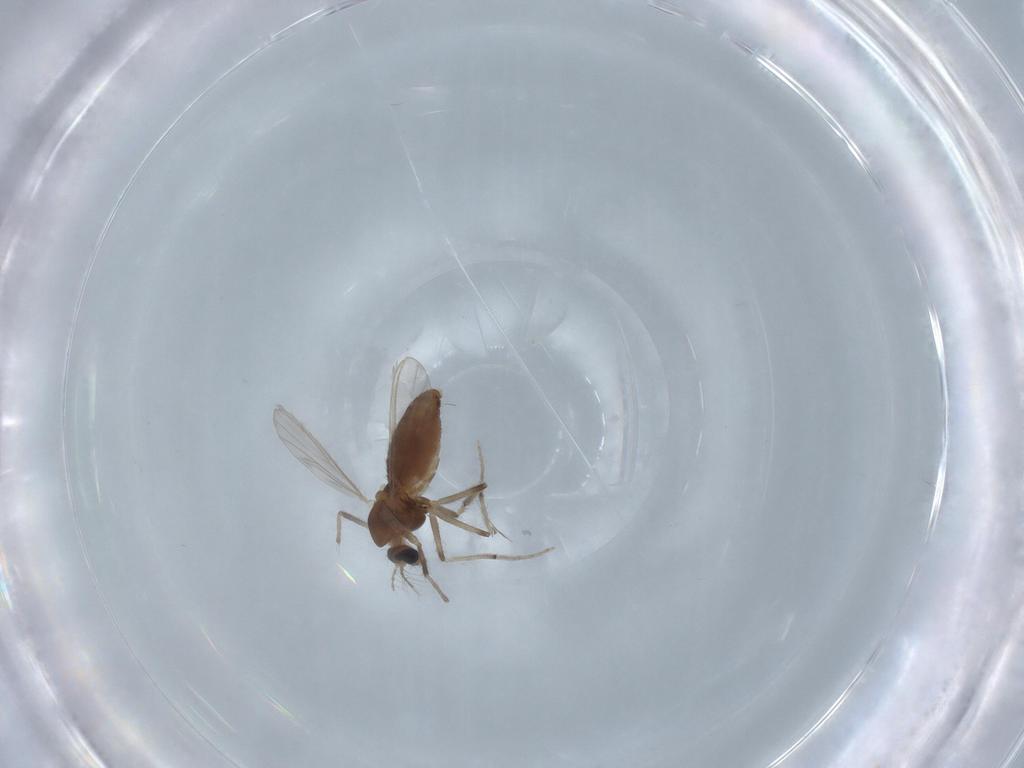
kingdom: Animalia
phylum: Arthropoda
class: Insecta
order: Diptera
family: Chironomidae
